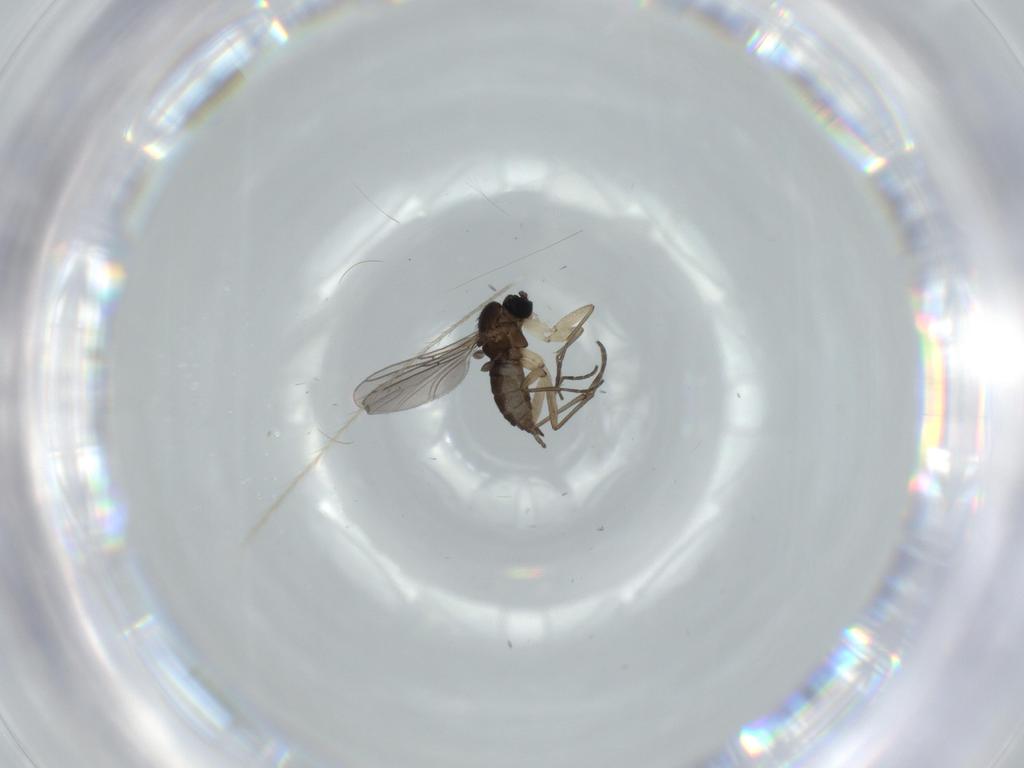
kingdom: Animalia
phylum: Arthropoda
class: Insecta
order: Diptera
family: Sciaridae
